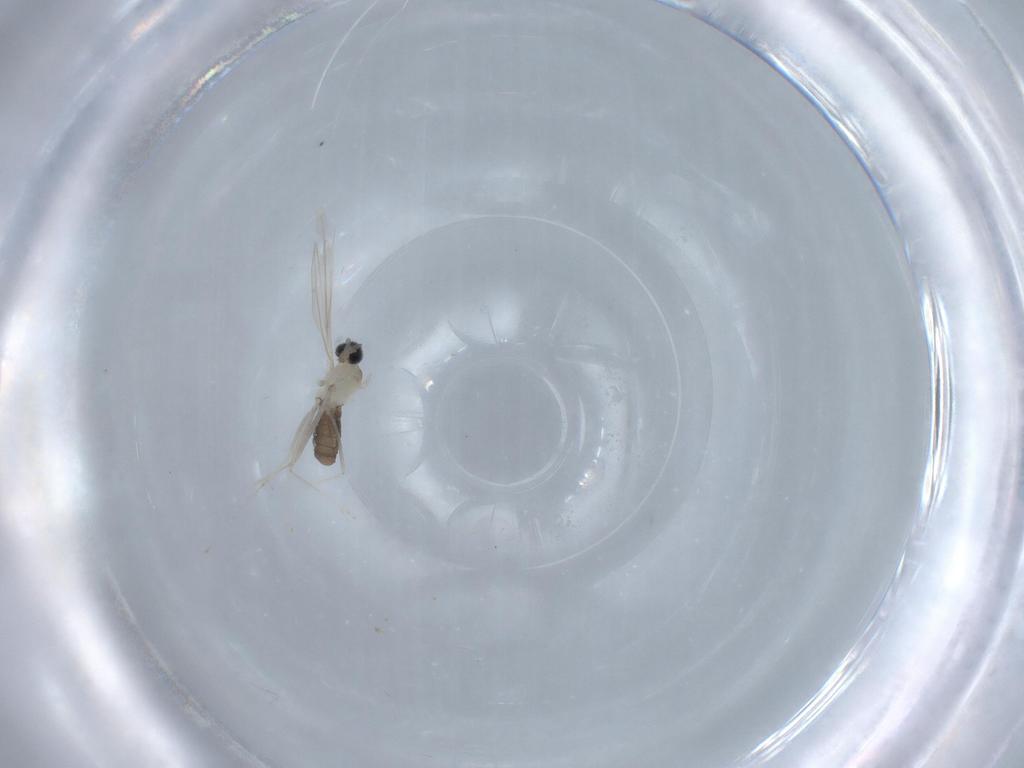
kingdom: Animalia
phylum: Arthropoda
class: Insecta
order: Diptera
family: Cecidomyiidae
